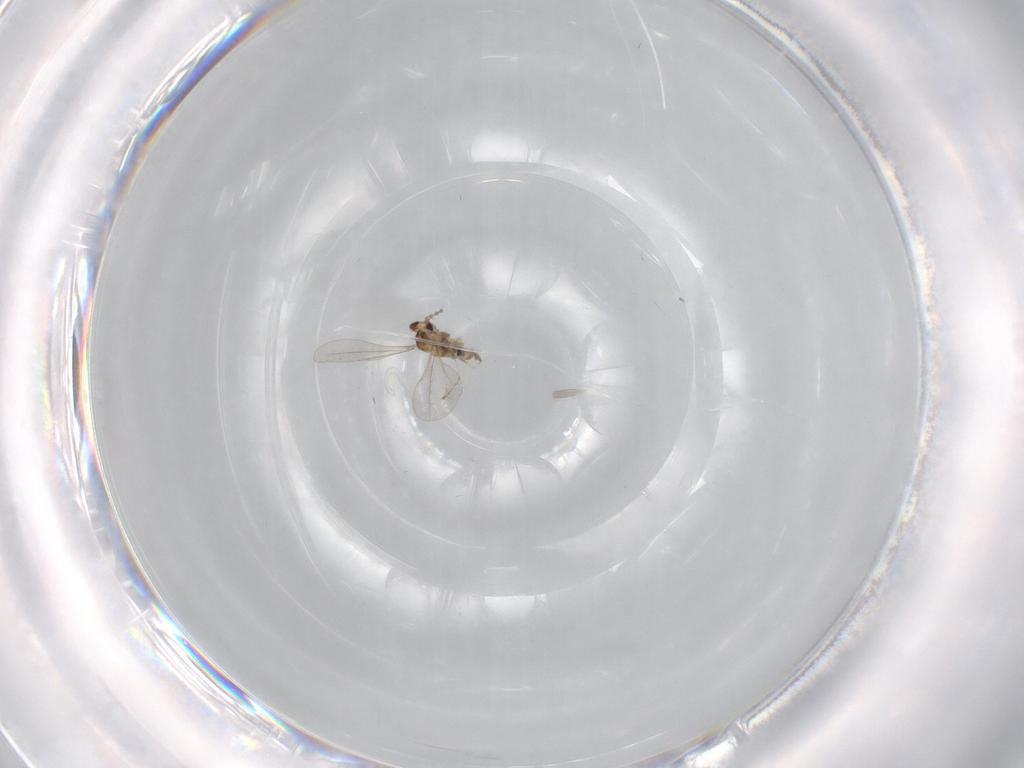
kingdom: Animalia
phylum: Arthropoda
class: Insecta
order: Diptera
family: Cecidomyiidae
